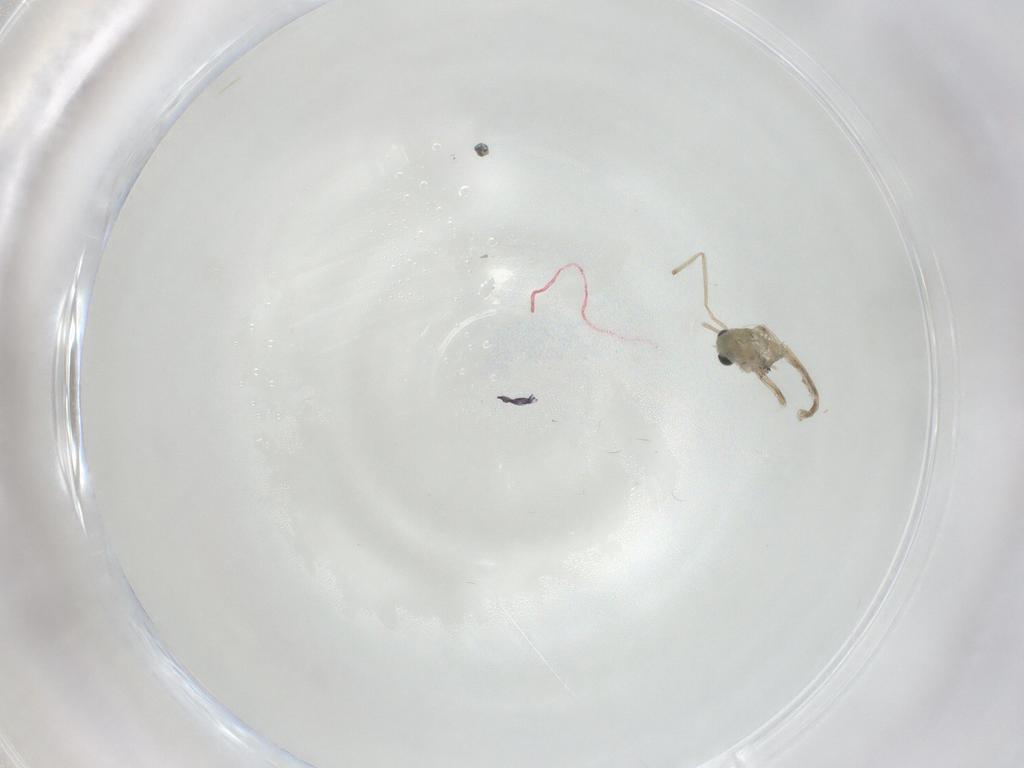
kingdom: Animalia
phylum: Arthropoda
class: Insecta
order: Diptera
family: Chironomidae
